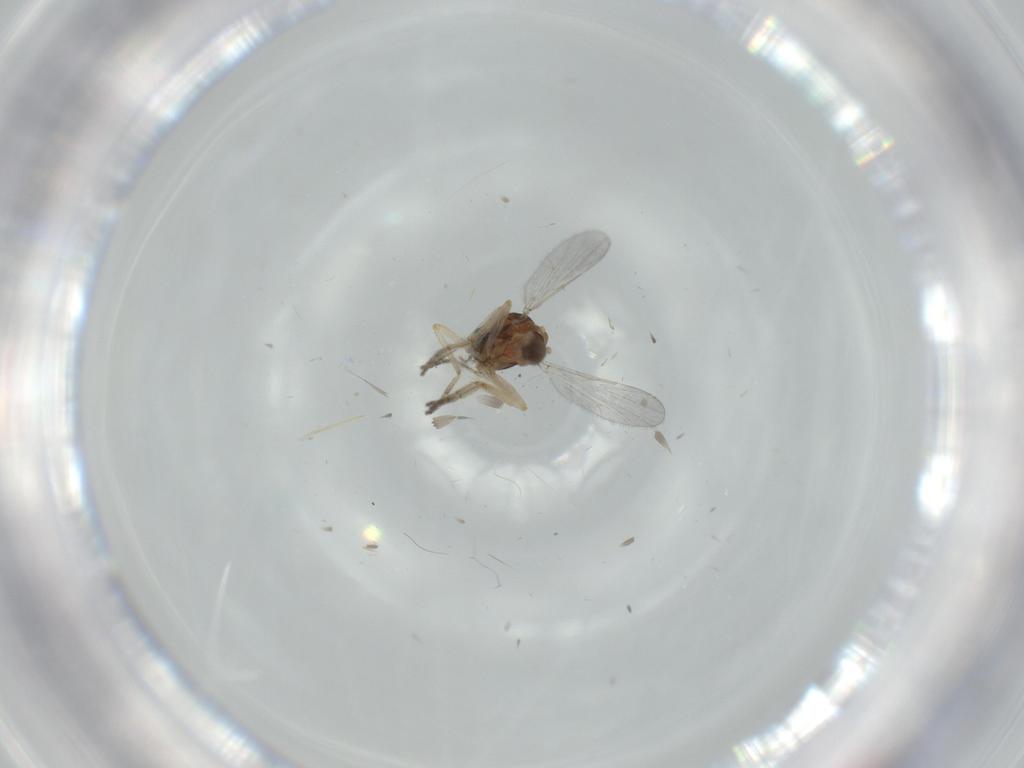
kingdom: Animalia
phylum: Arthropoda
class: Insecta
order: Diptera
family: Ceratopogonidae
